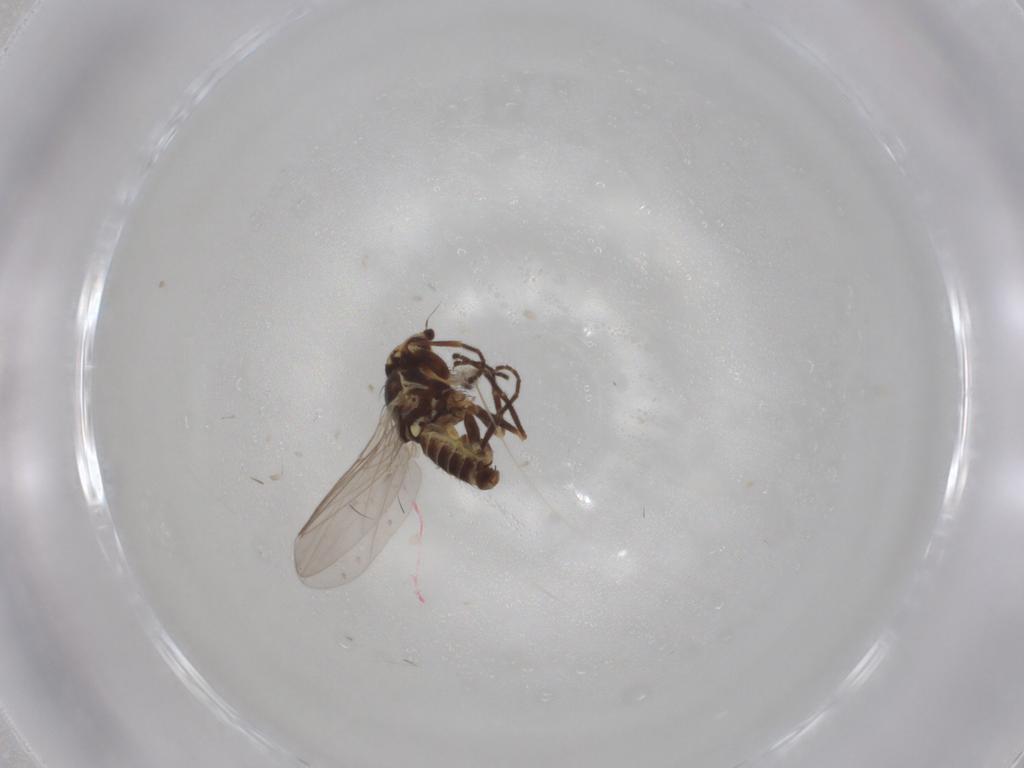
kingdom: Animalia
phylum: Arthropoda
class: Insecta
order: Diptera
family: Agromyzidae
